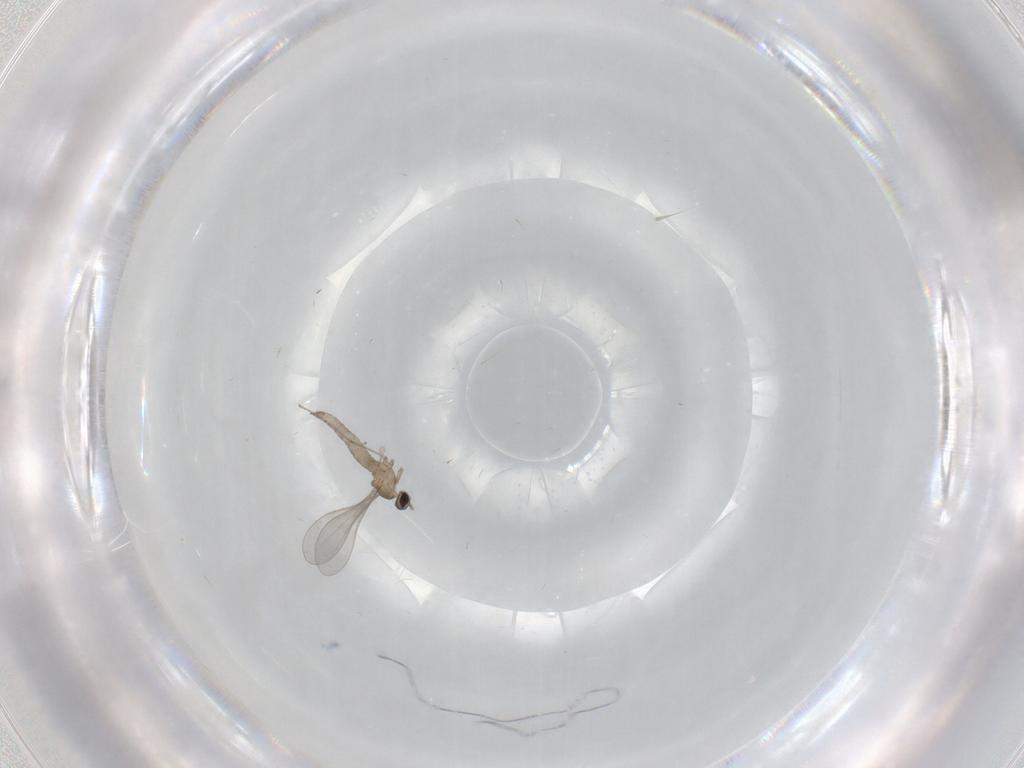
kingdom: Animalia
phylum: Arthropoda
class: Insecta
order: Diptera
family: Cecidomyiidae
